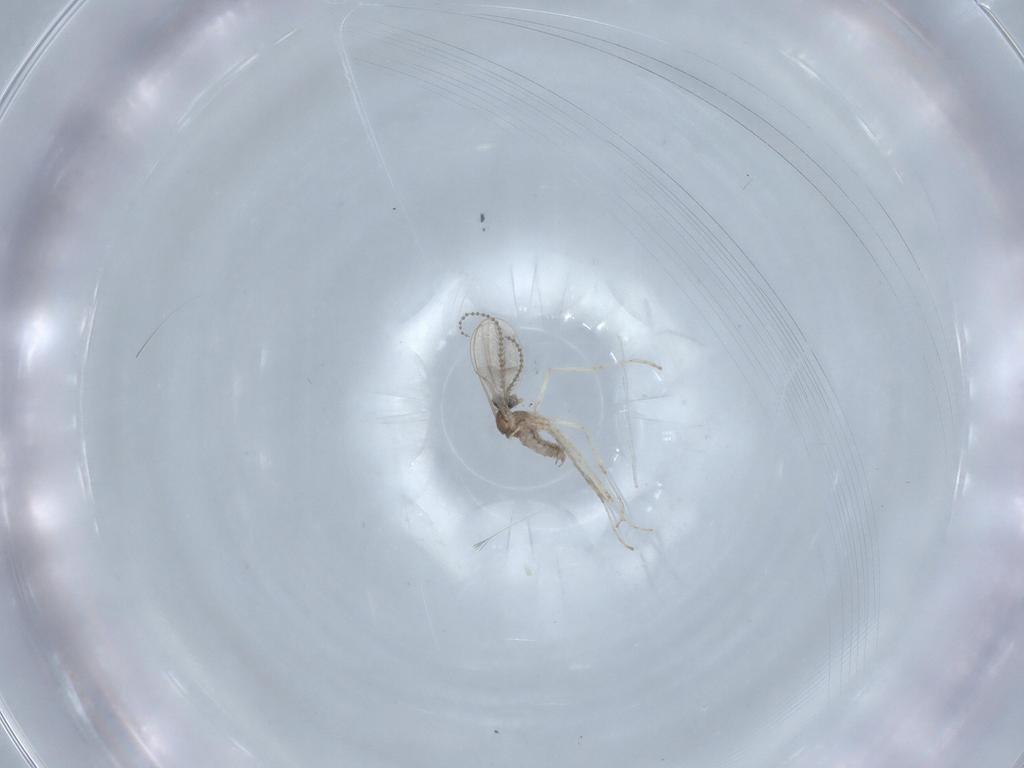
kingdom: Animalia
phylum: Arthropoda
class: Insecta
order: Diptera
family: Cecidomyiidae
